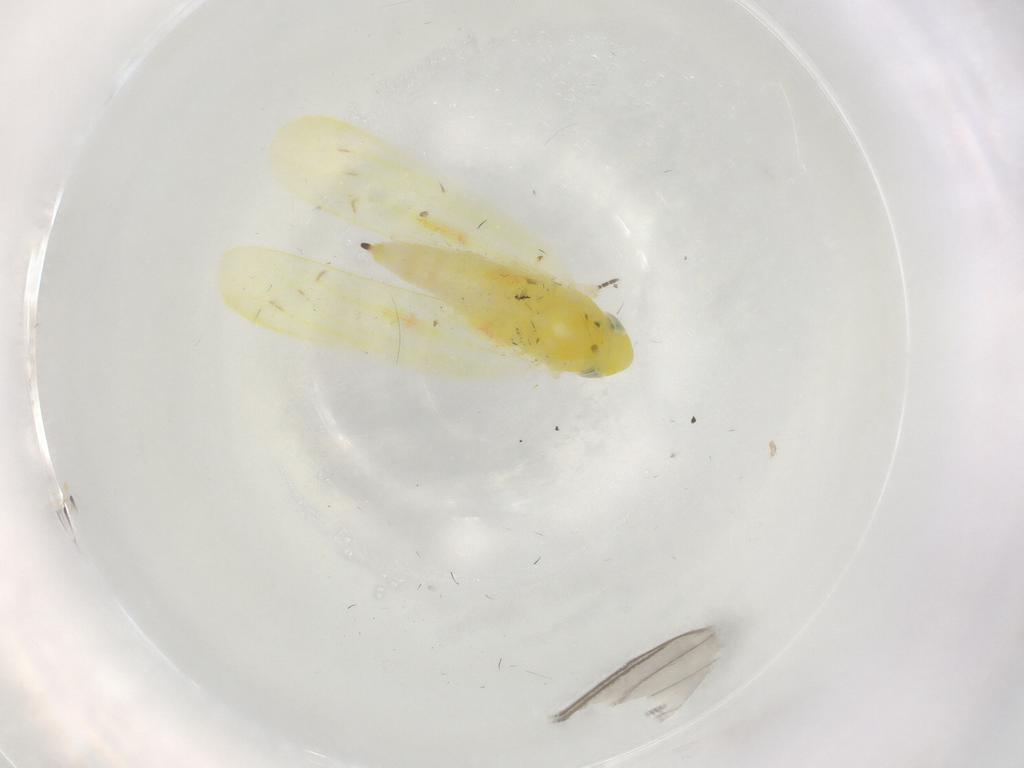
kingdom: Animalia
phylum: Arthropoda
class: Insecta
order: Hemiptera
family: Cicadellidae
